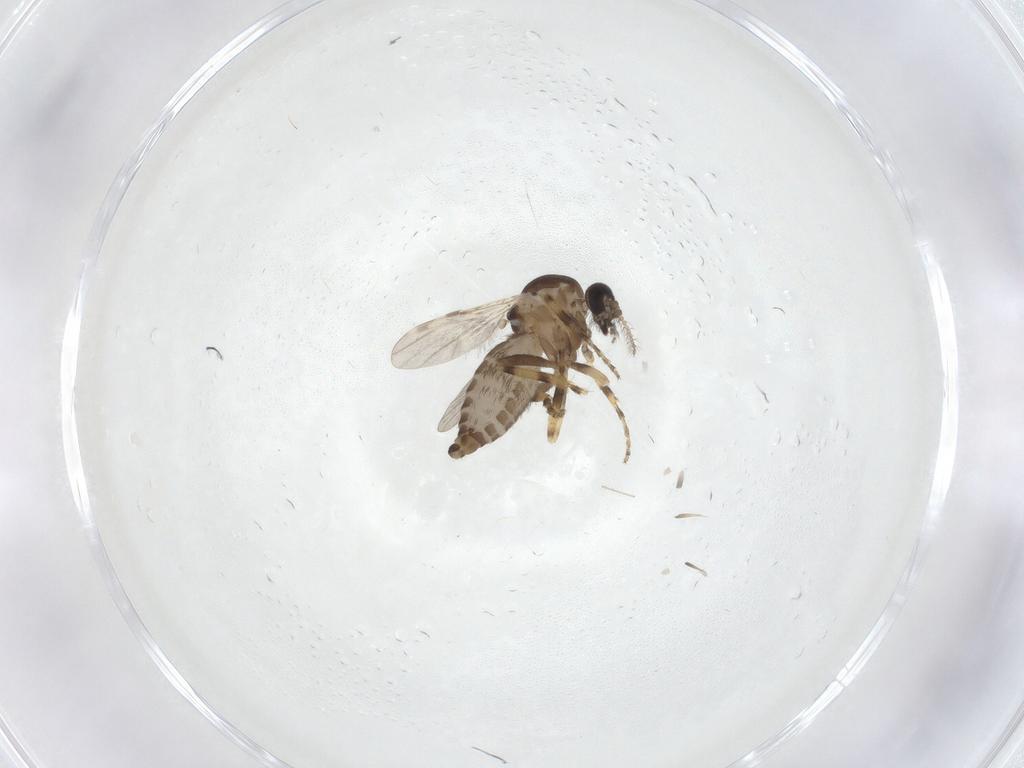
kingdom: Animalia
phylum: Arthropoda
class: Insecta
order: Diptera
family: Ceratopogonidae
